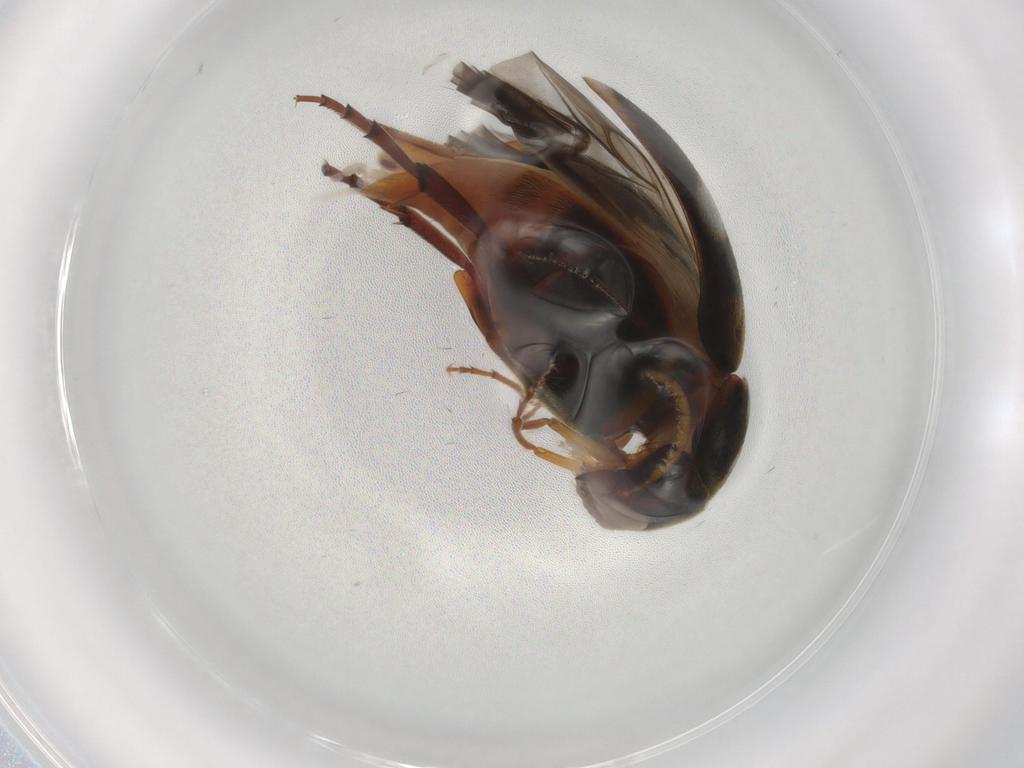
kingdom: Animalia
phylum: Arthropoda
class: Insecta
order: Coleoptera
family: Mordellidae
